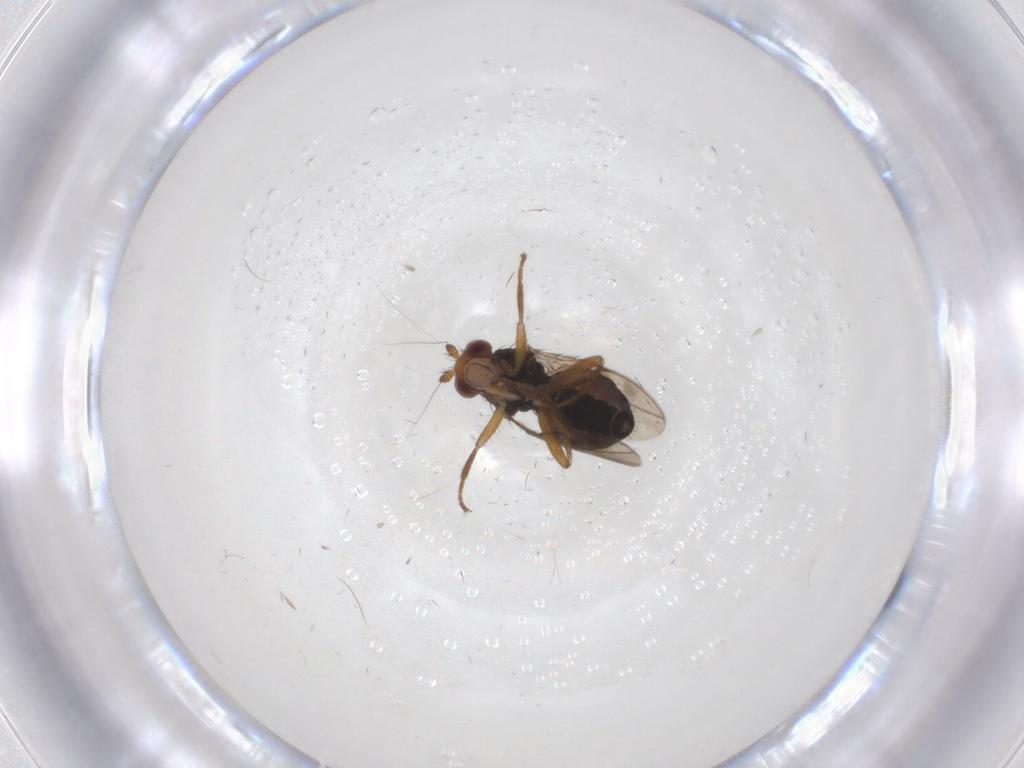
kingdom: Animalia
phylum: Arthropoda
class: Insecta
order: Diptera
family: Sphaeroceridae
